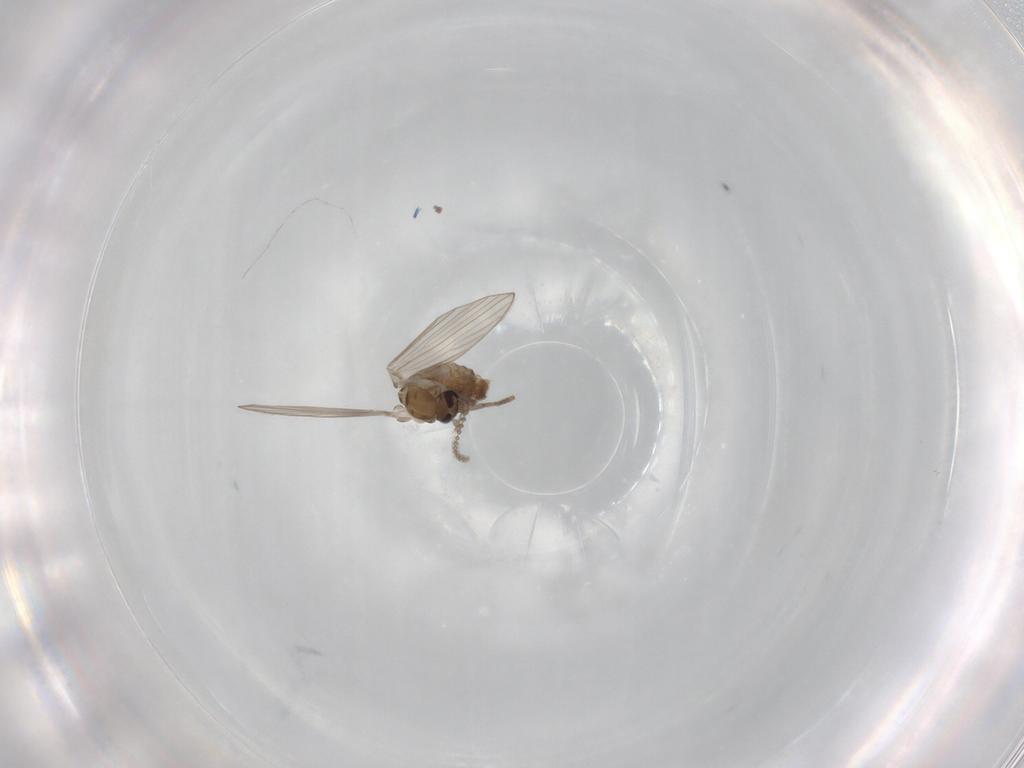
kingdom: Animalia
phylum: Arthropoda
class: Insecta
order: Diptera
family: Psychodidae
